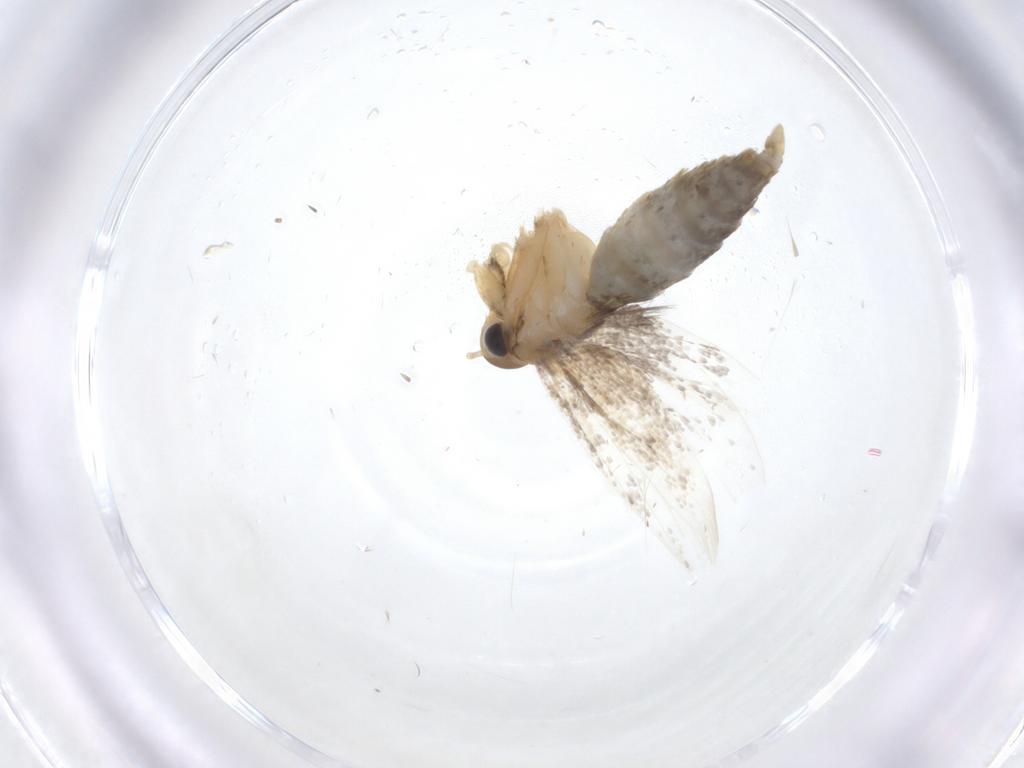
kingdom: Animalia
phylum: Arthropoda
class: Insecta
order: Lepidoptera
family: Oecophoridae
